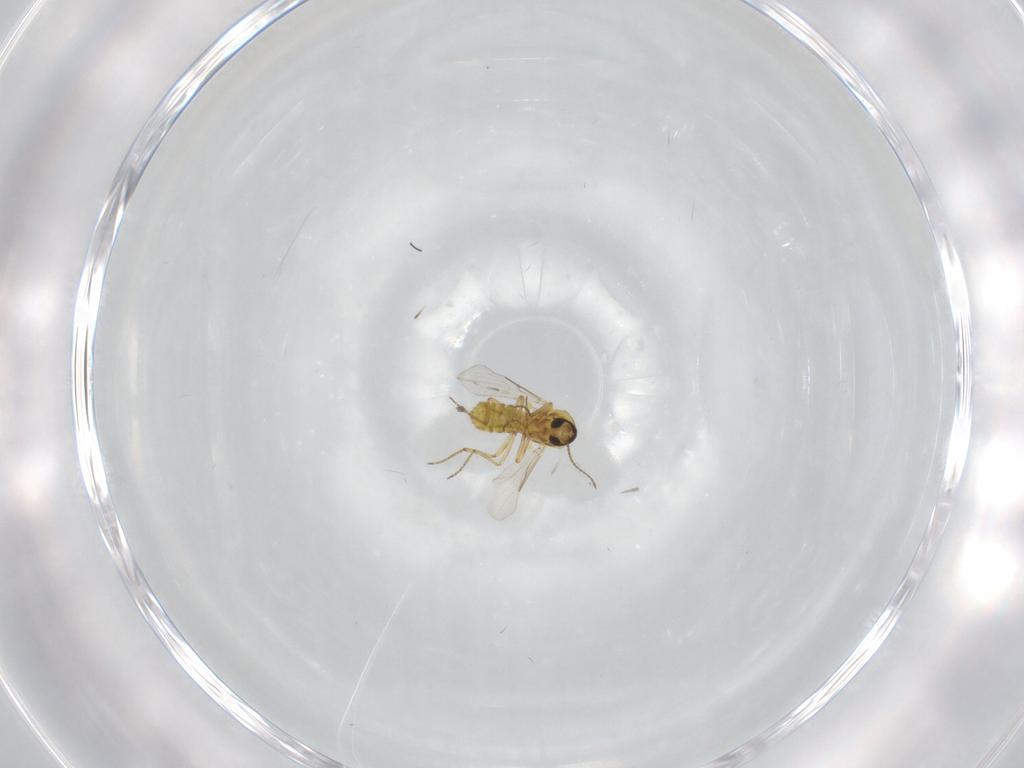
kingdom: Animalia
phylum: Arthropoda
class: Insecta
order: Diptera
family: Ceratopogonidae
